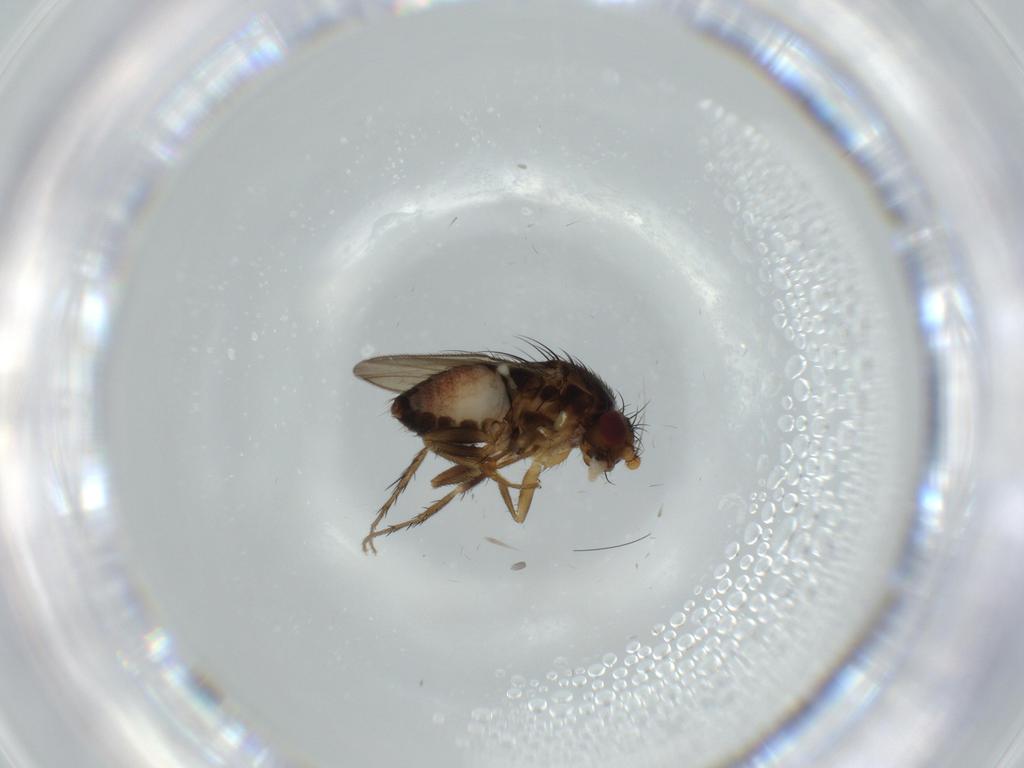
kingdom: Animalia
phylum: Arthropoda
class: Insecta
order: Diptera
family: Sphaeroceridae
